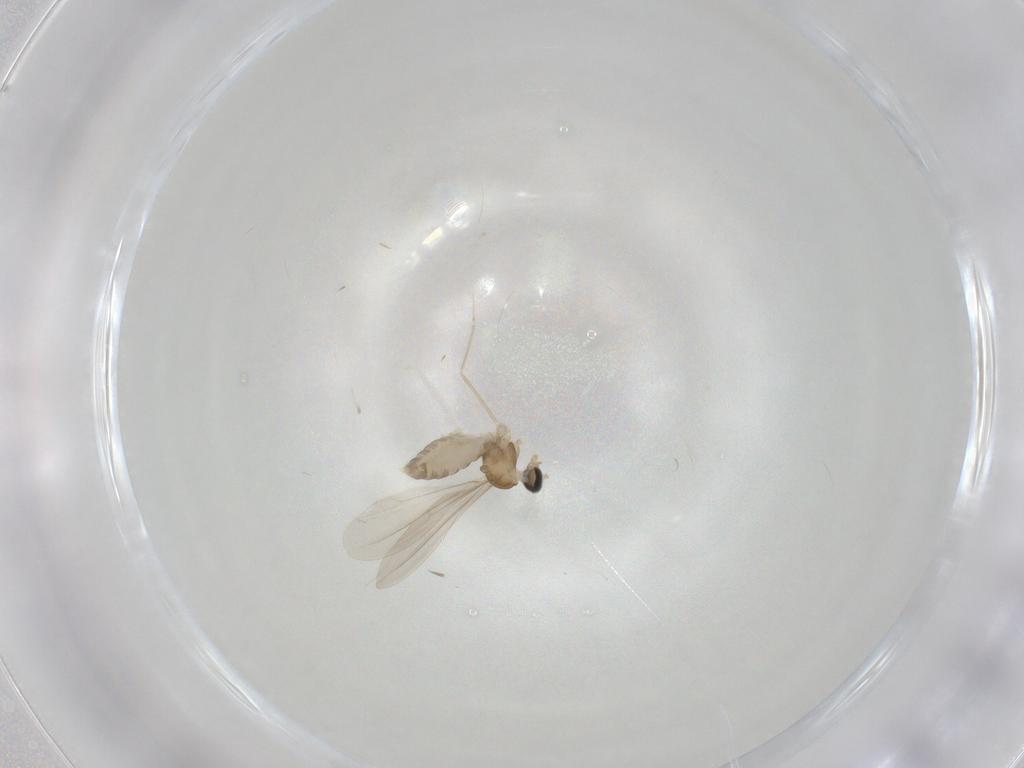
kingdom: Animalia
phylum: Arthropoda
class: Insecta
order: Diptera
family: Cecidomyiidae
